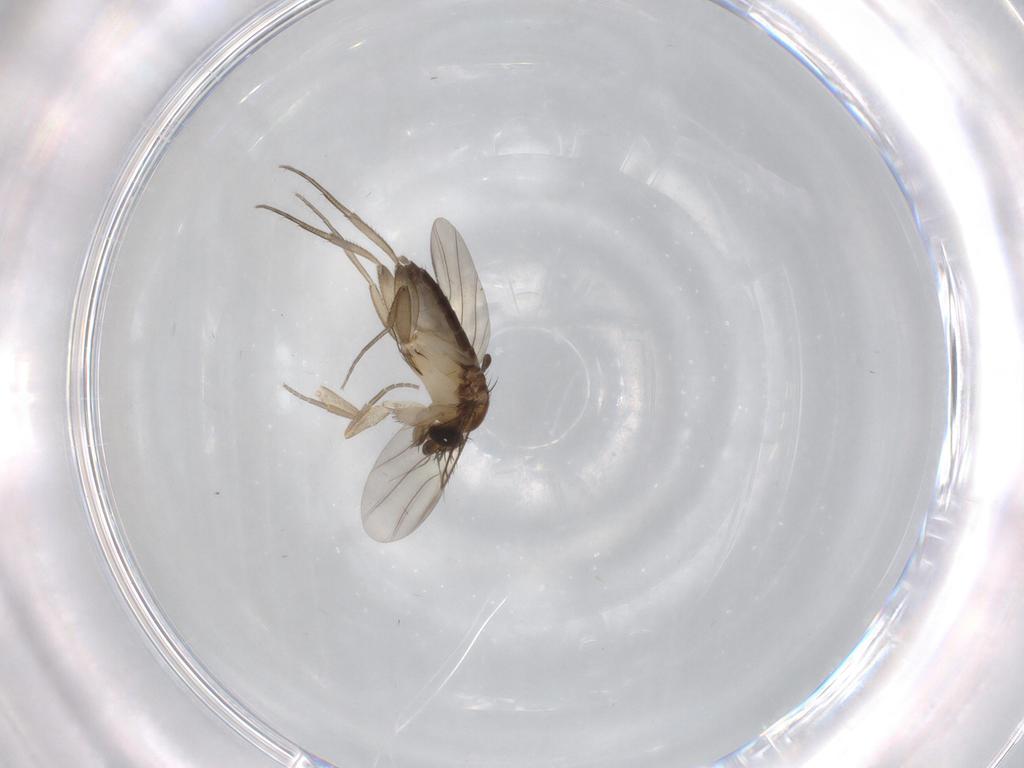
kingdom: Animalia
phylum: Arthropoda
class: Insecta
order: Diptera
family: Phoridae
